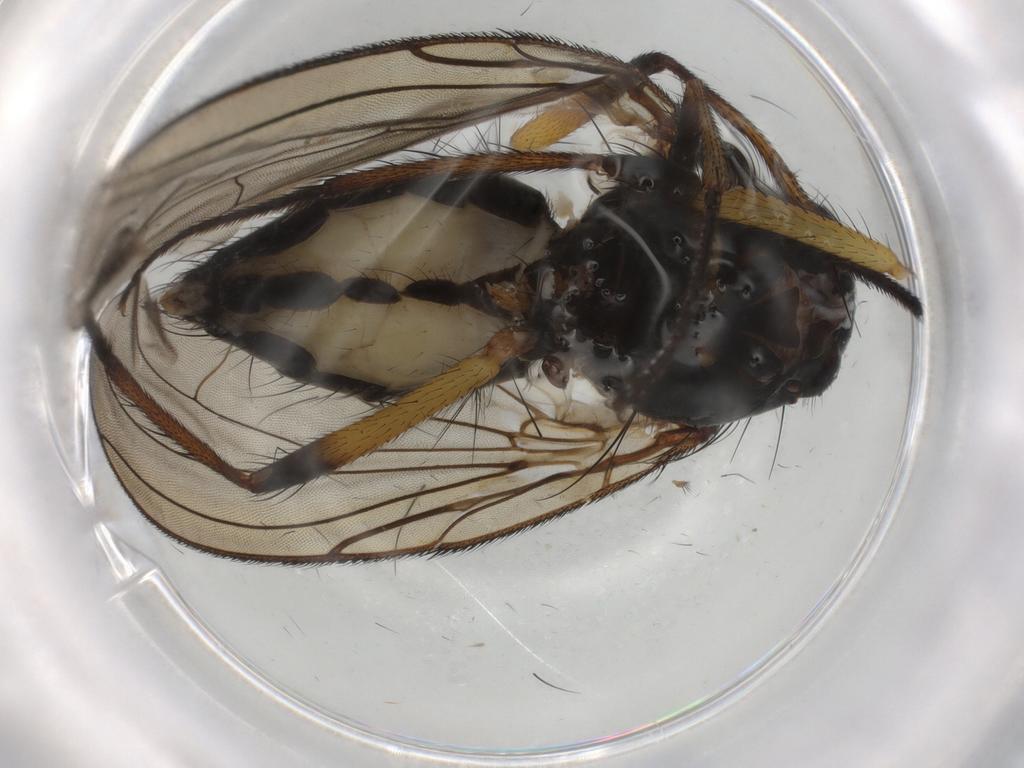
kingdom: Animalia
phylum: Arthropoda
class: Insecta
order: Diptera
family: Anthomyiidae
